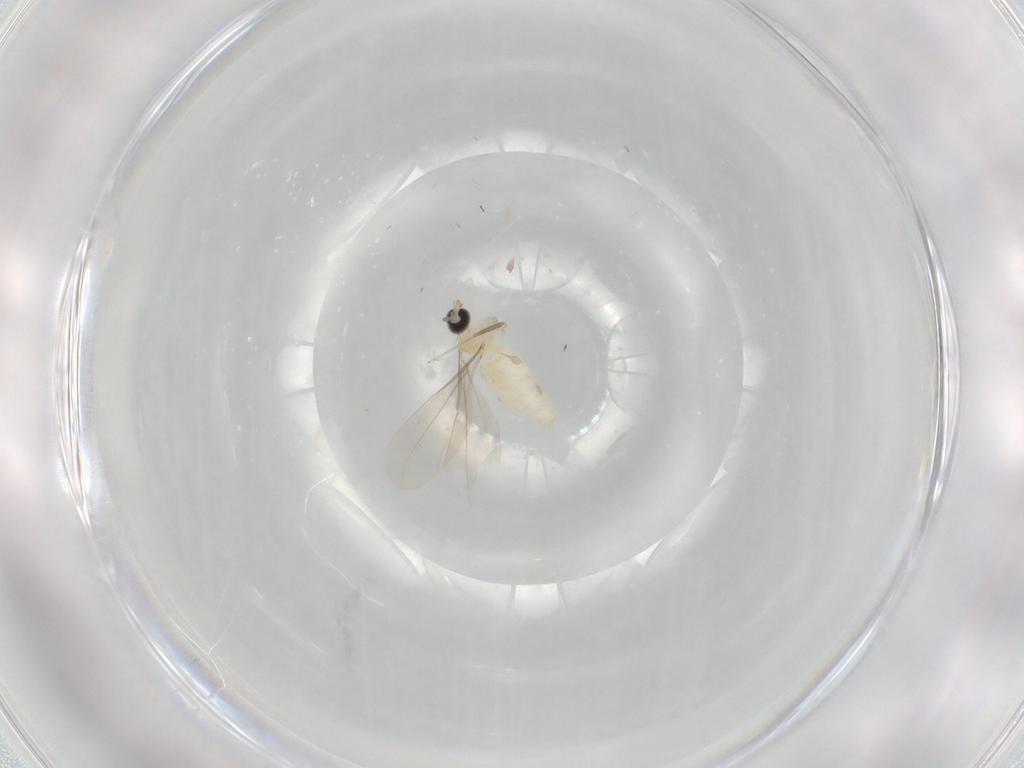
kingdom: Animalia
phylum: Arthropoda
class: Insecta
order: Diptera
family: Cecidomyiidae
